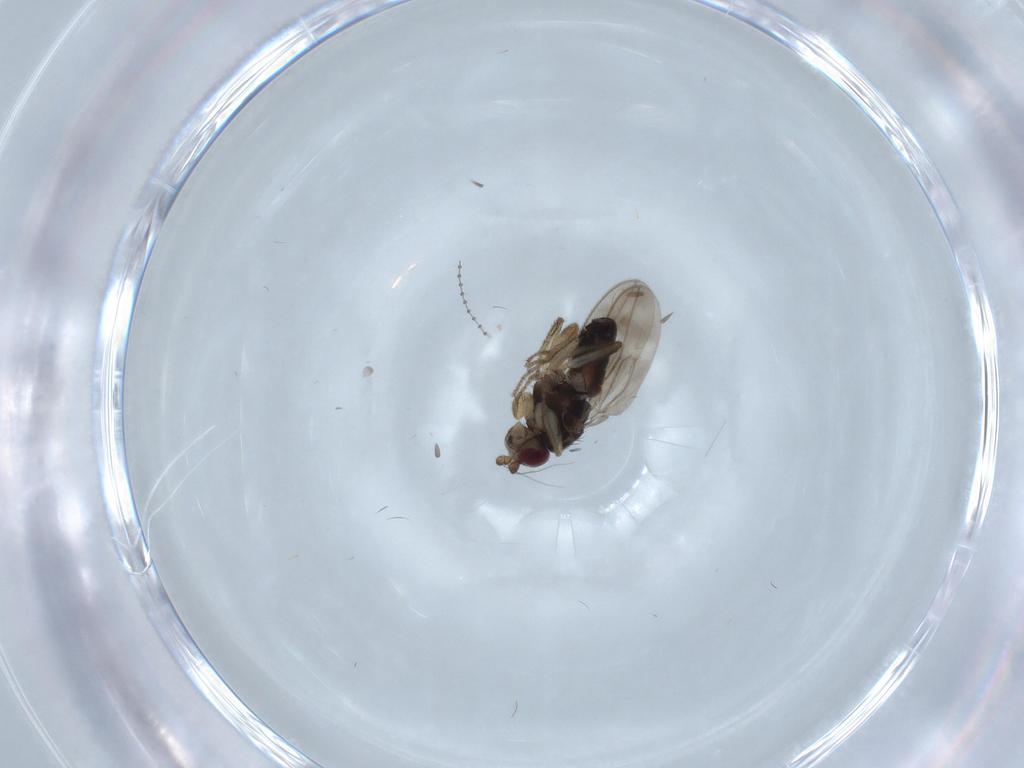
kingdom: Animalia
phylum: Arthropoda
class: Insecta
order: Diptera
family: Sphaeroceridae
